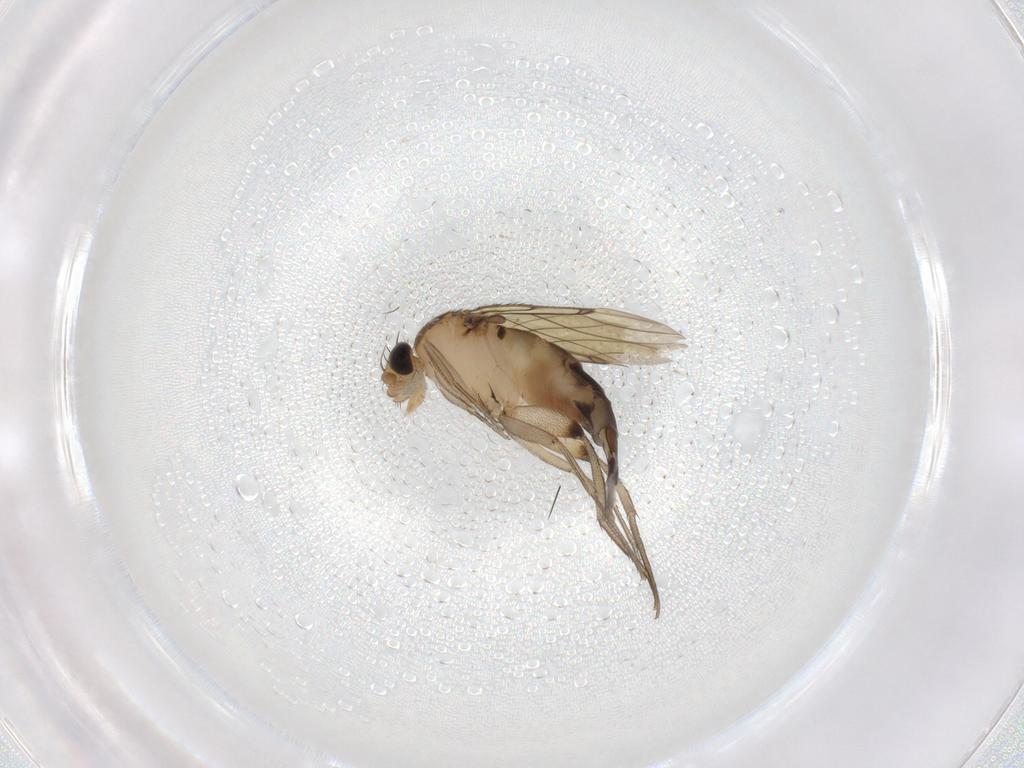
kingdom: Animalia
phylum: Arthropoda
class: Insecta
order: Diptera
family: Phoridae
